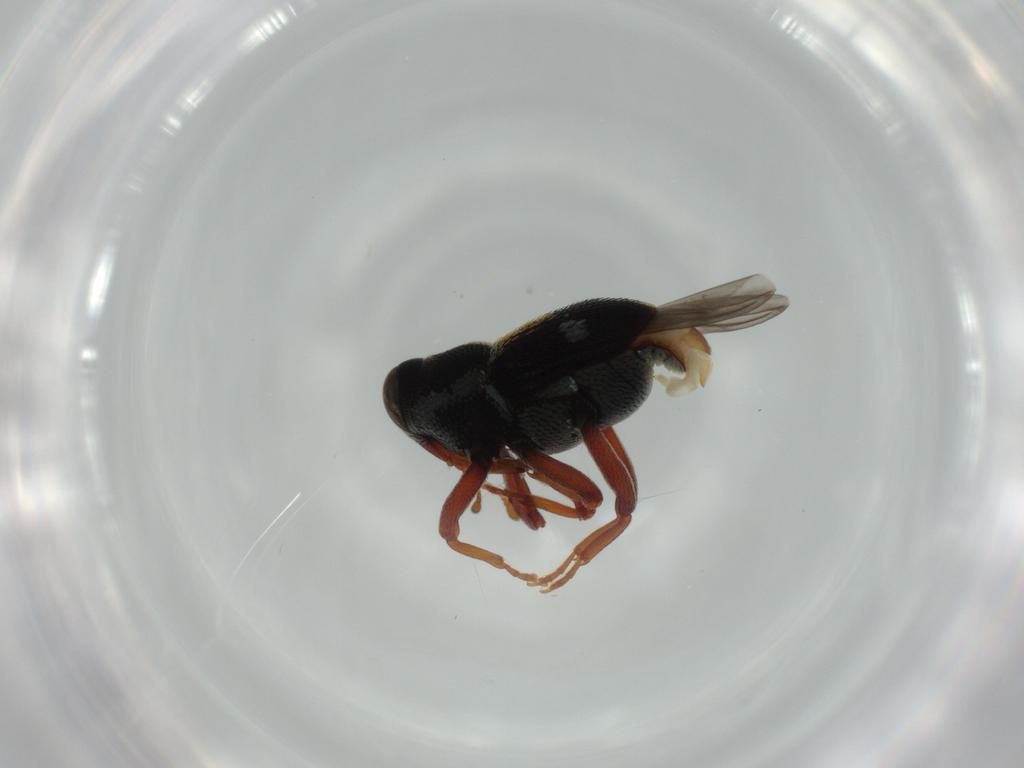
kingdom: Animalia
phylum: Arthropoda
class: Insecta
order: Coleoptera
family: Curculionidae
